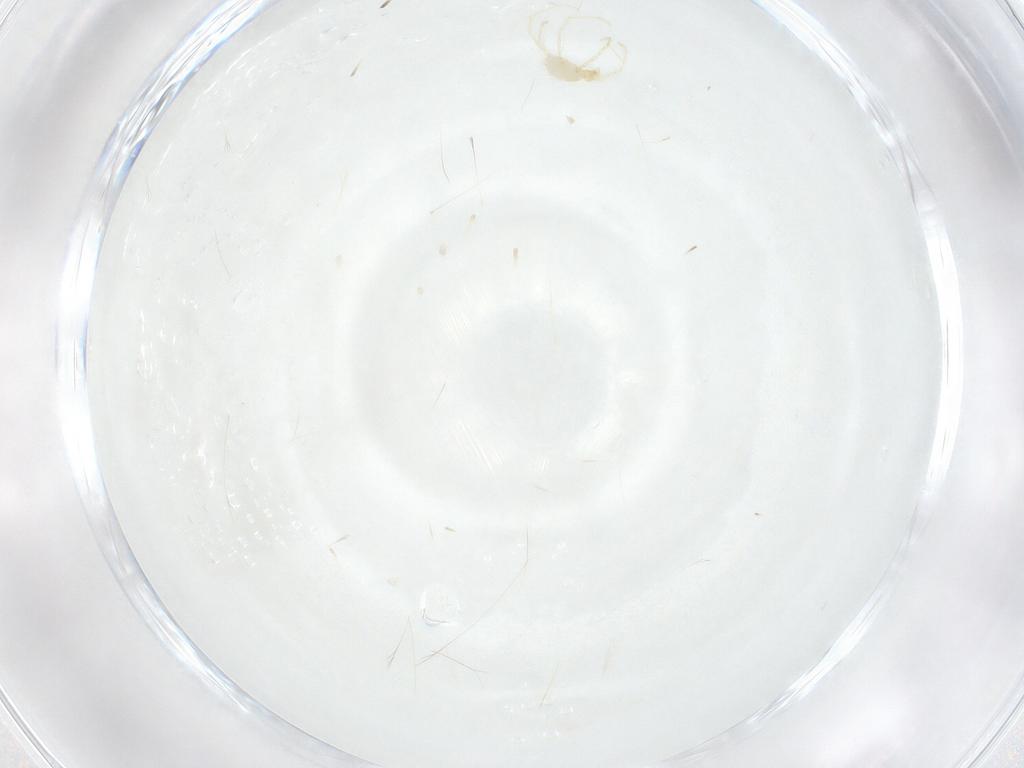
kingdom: Animalia
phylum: Arthropoda
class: Arachnida
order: Trombidiformes
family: Erythraeidae
